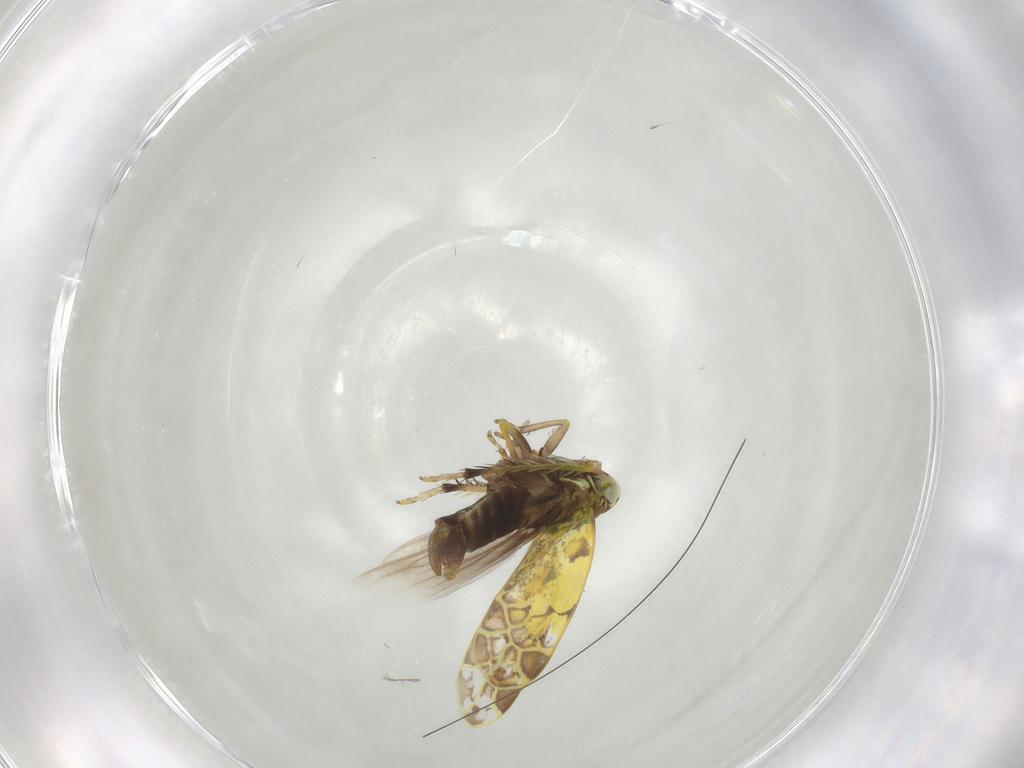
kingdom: Animalia
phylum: Arthropoda
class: Insecta
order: Hemiptera
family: Cicadellidae
